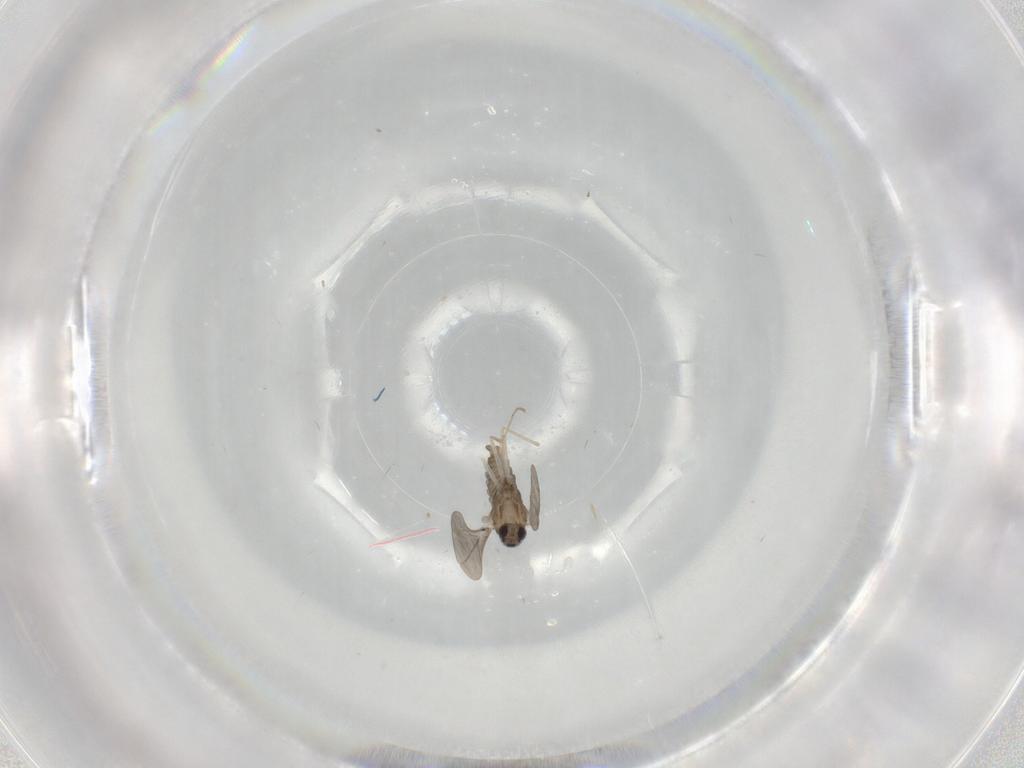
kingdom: Animalia
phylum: Arthropoda
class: Insecta
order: Diptera
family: Cecidomyiidae
